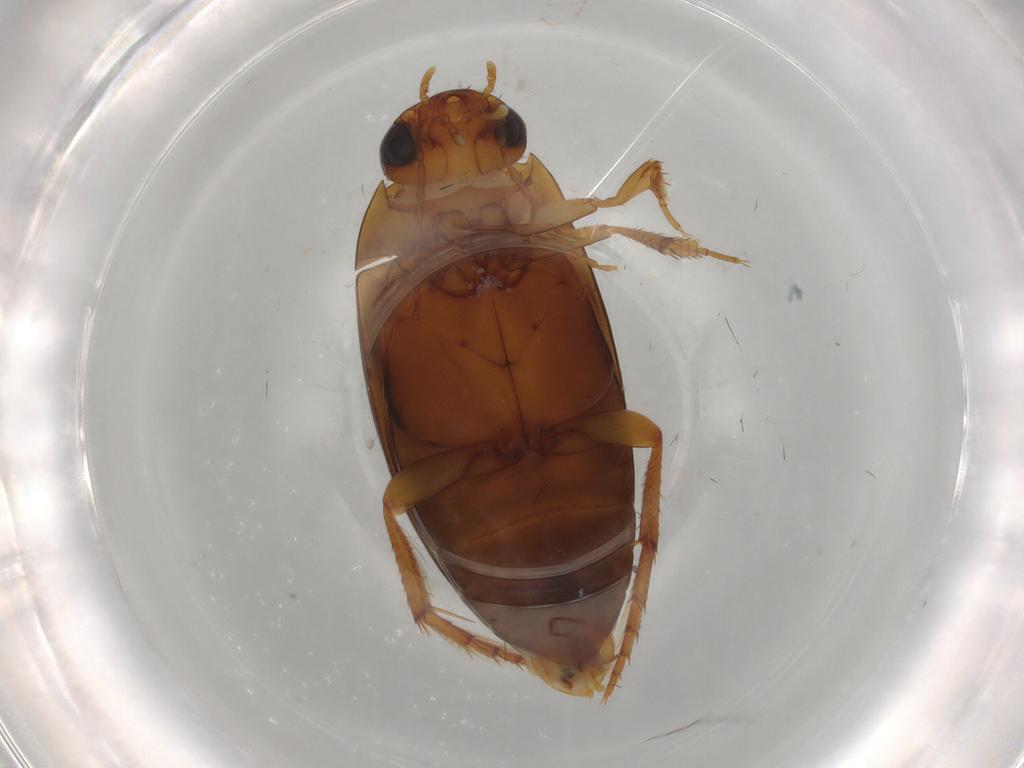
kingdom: Animalia
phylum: Arthropoda
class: Insecta
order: Coleoptera
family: Dytiscidae
